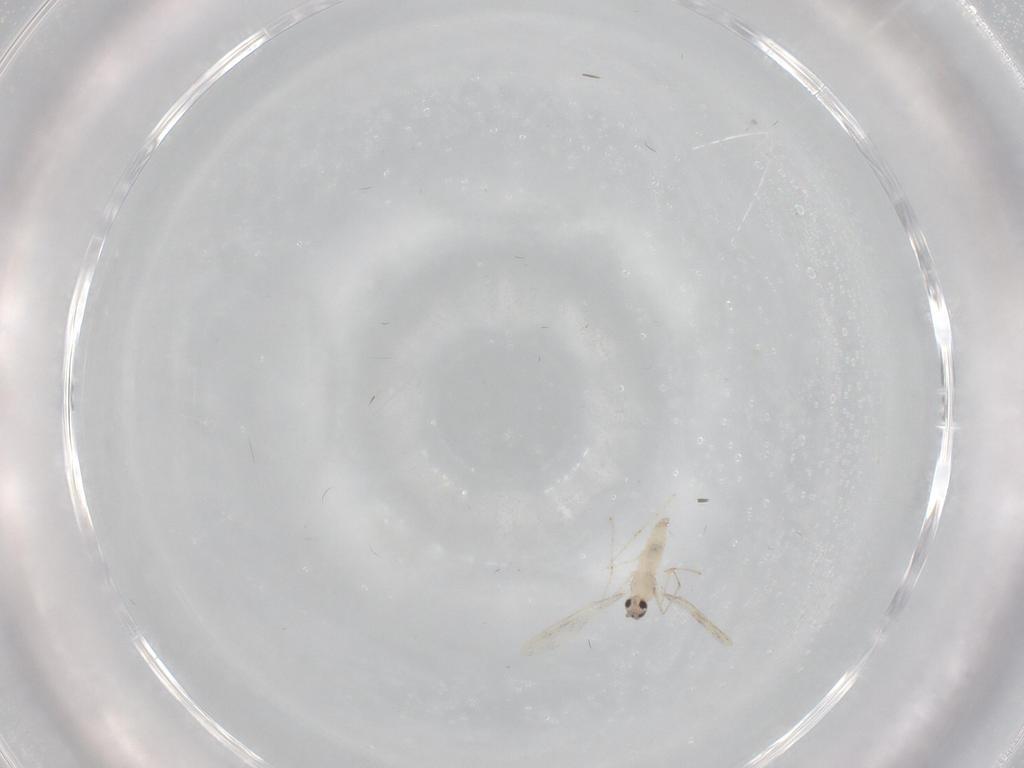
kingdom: Animalia
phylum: Arthropoda
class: Insecta
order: Diptera
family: Cecidomyiidae
